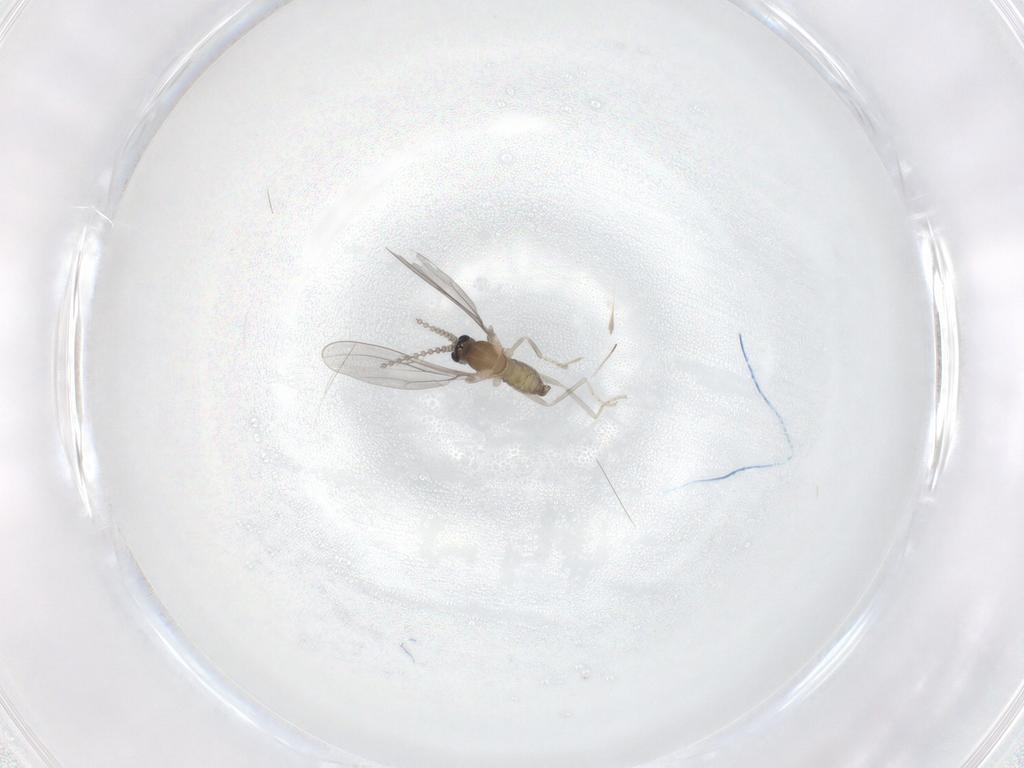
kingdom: Animalia
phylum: Arthropoda
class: Insecta
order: Diptera
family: Cecidomyiidae
